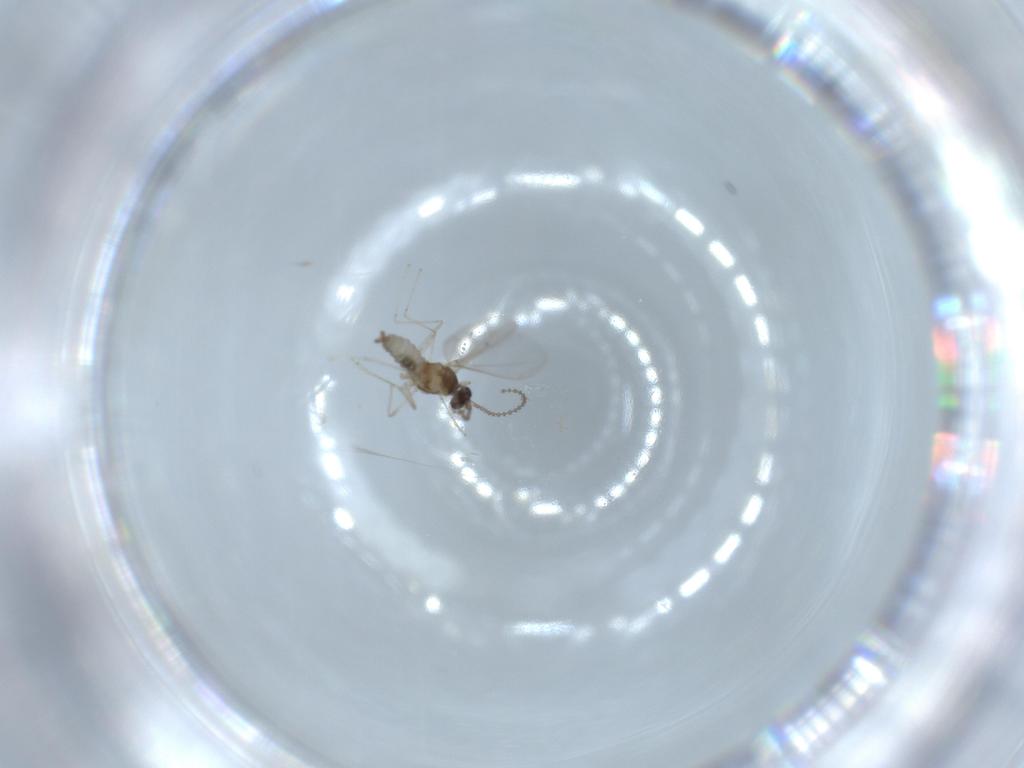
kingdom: Animalia
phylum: Arthropoda
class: Insecta
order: Diptera
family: Cecidomyiidae
